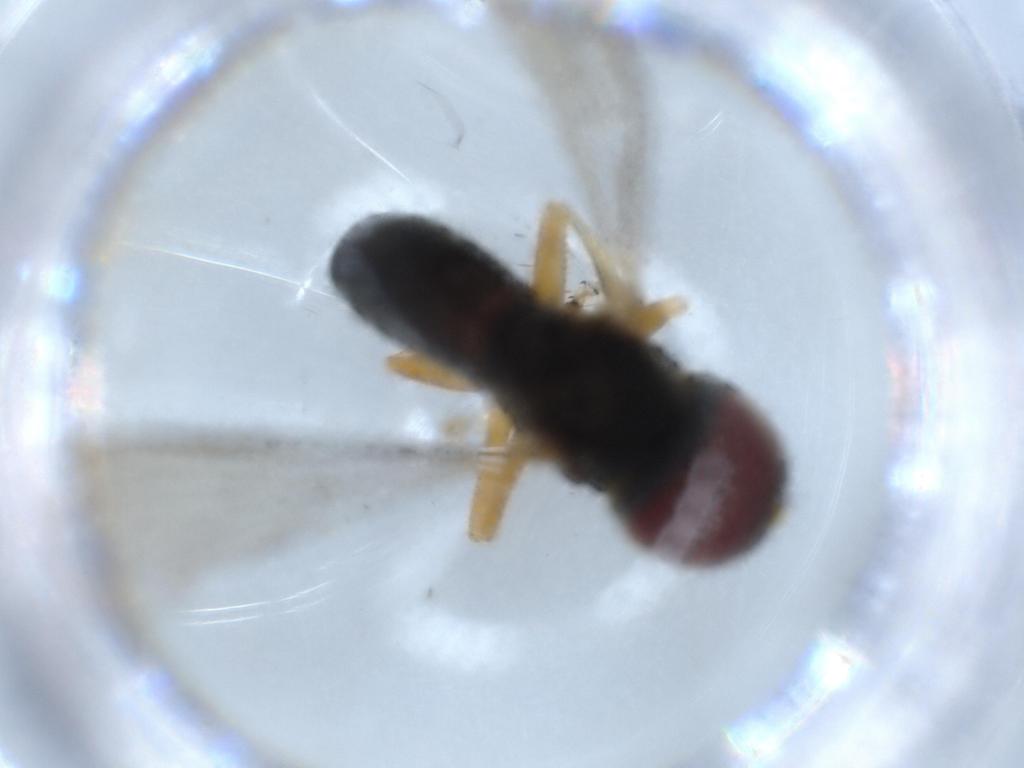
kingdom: Animalia
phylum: Arthropoda
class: Insecta
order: Diptera
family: Pipunculidae
